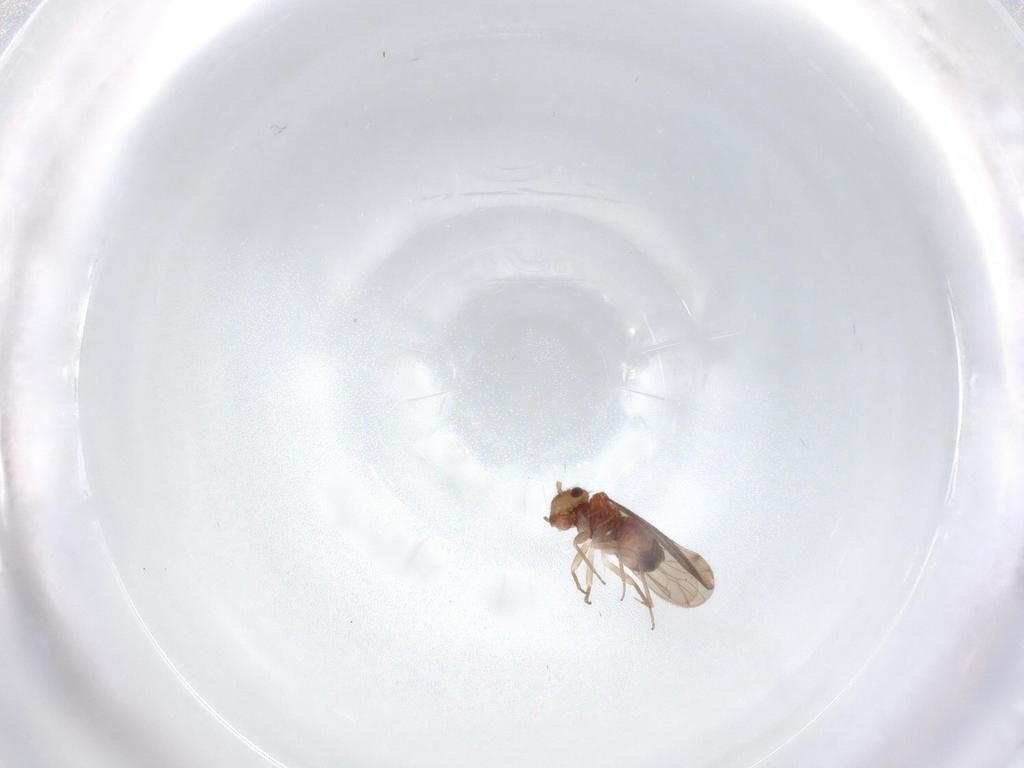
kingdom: Animalia
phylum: Arthropoda
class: Insecta
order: Psocodea
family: Ectopsocidae
